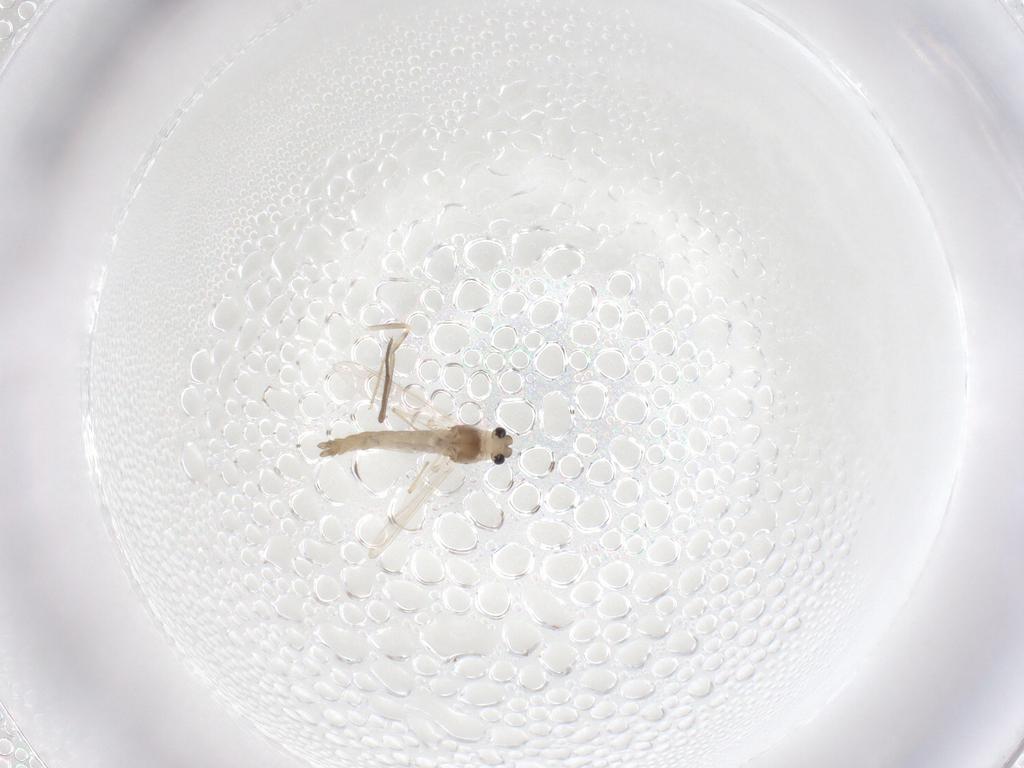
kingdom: Animalia
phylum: Arthropoda
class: Insecta
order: Diptera
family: Ceratopogonidae
